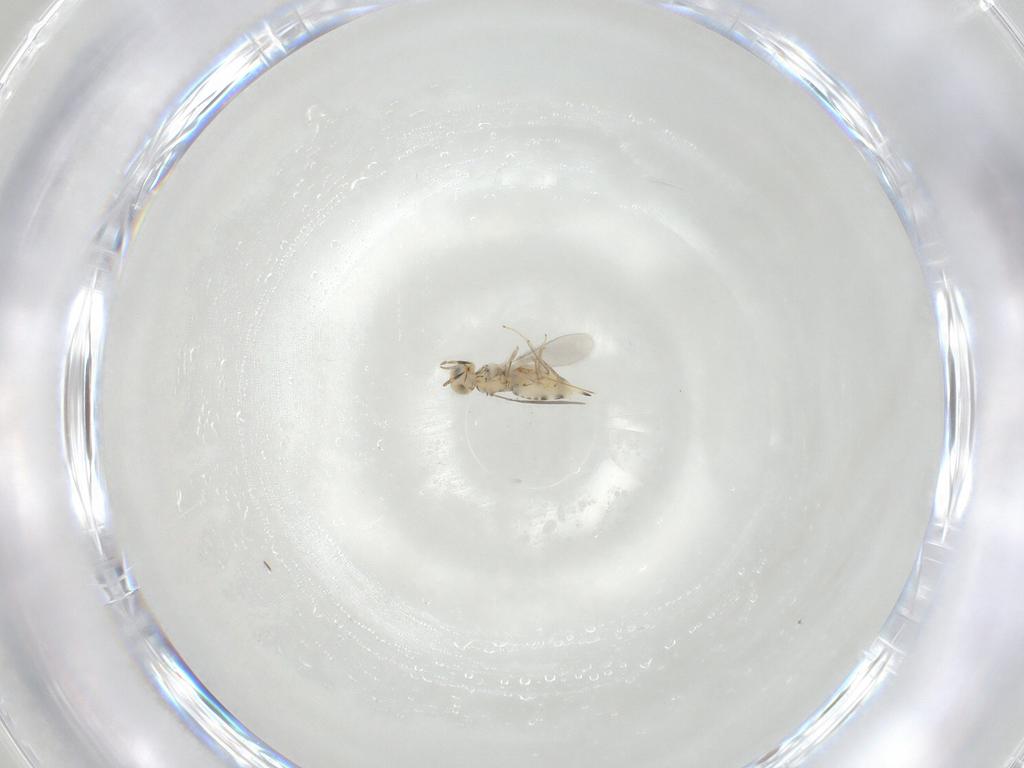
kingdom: Animalia
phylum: Arthropoda
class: Insecta
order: Hymenoptera
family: Aphelinidae
